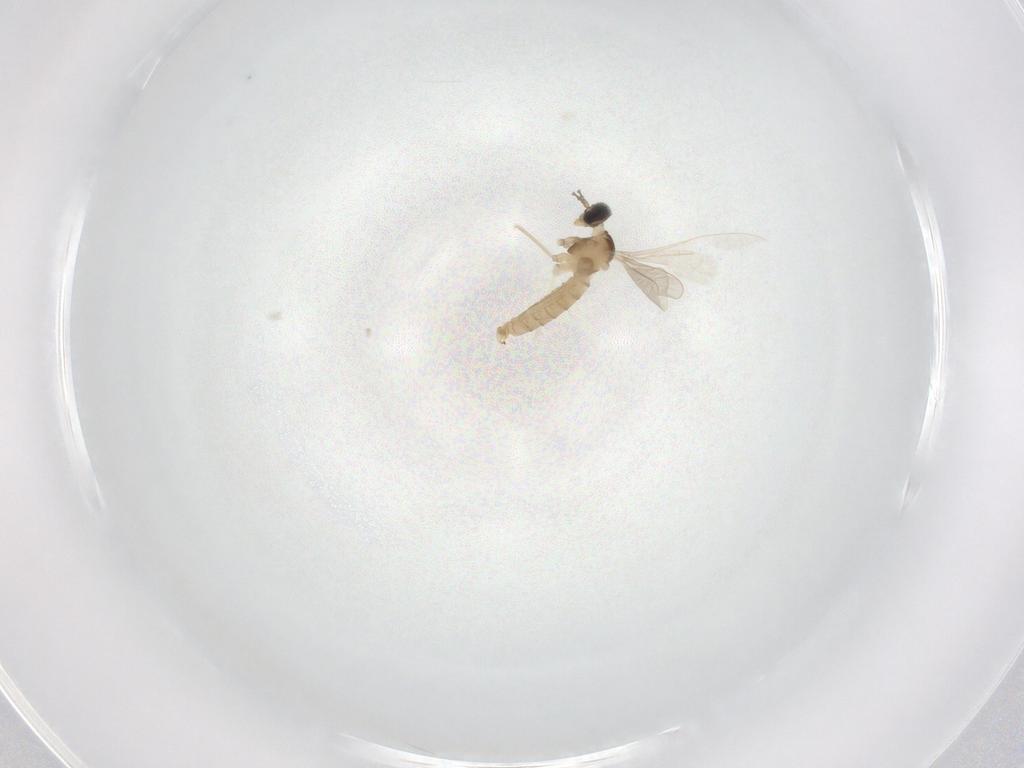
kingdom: Animalia
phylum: Arthropoda
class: Insecta
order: Diptera
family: Cecidomyiidae
